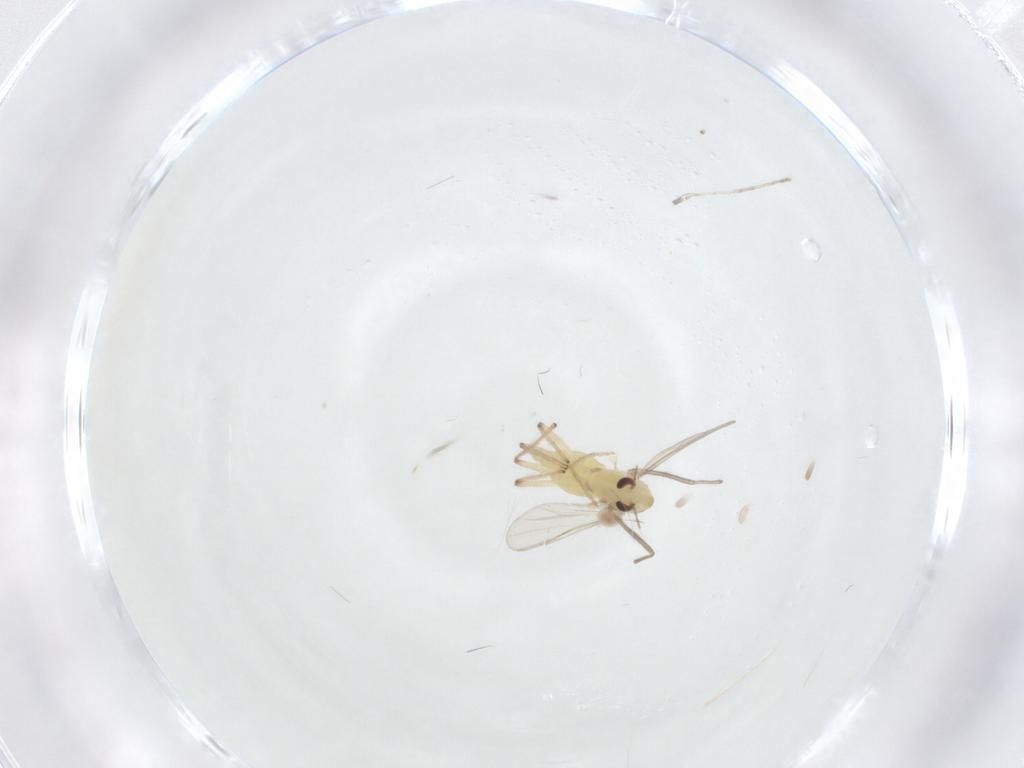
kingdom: Animalia
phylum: Arthropoda
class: Insecta
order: Diptera
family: Chironomidae
